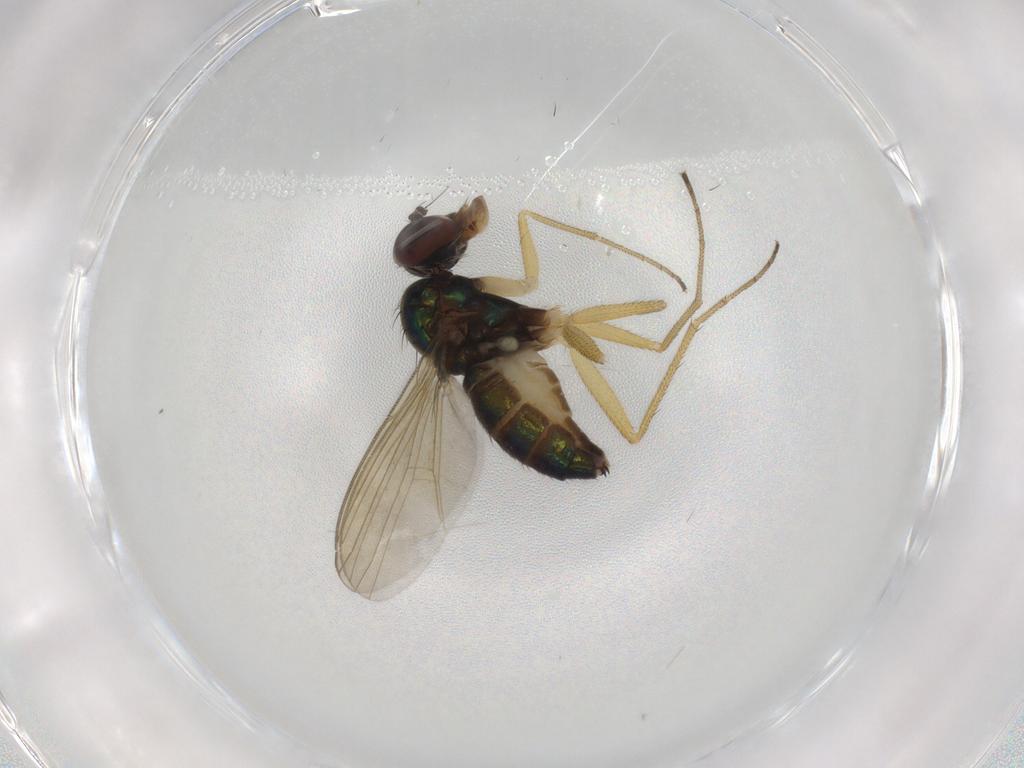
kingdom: Animalia
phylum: Arthropoda
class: Insecta
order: Diptera
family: Dolichopodidae
